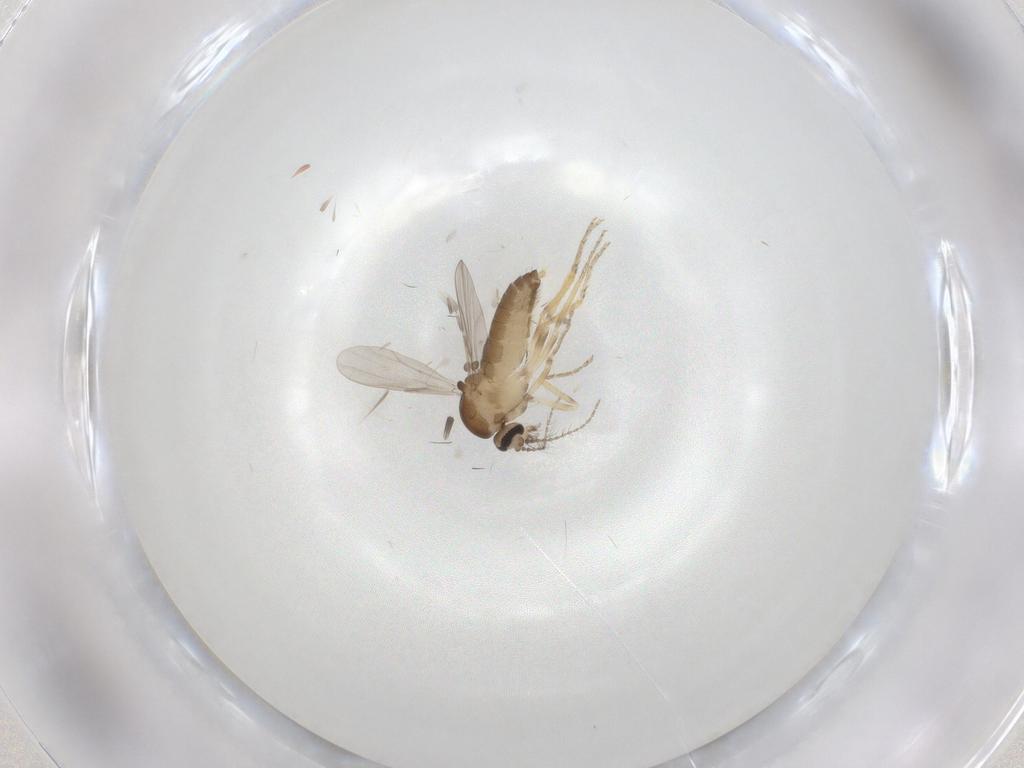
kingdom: Animalia
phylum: Arthropoda
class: Insecta
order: Diptera
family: Ceratopogonidae
